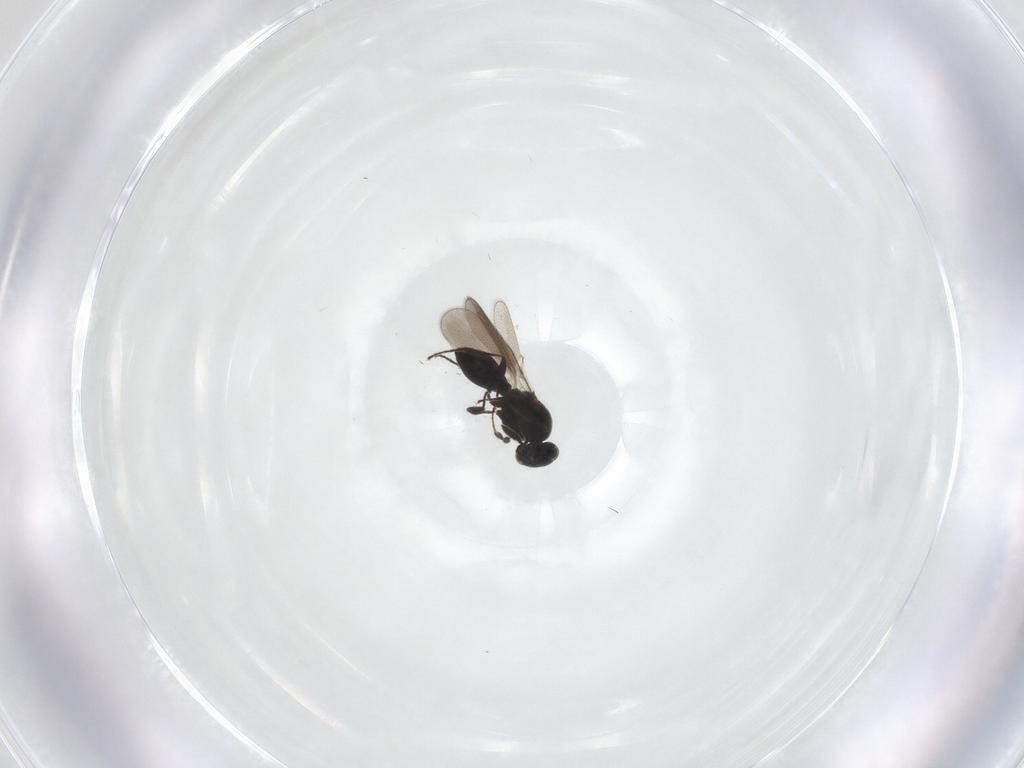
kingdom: Animalia
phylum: Arthropoda
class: Insecta
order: Hymenoptera
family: Platygastridae
